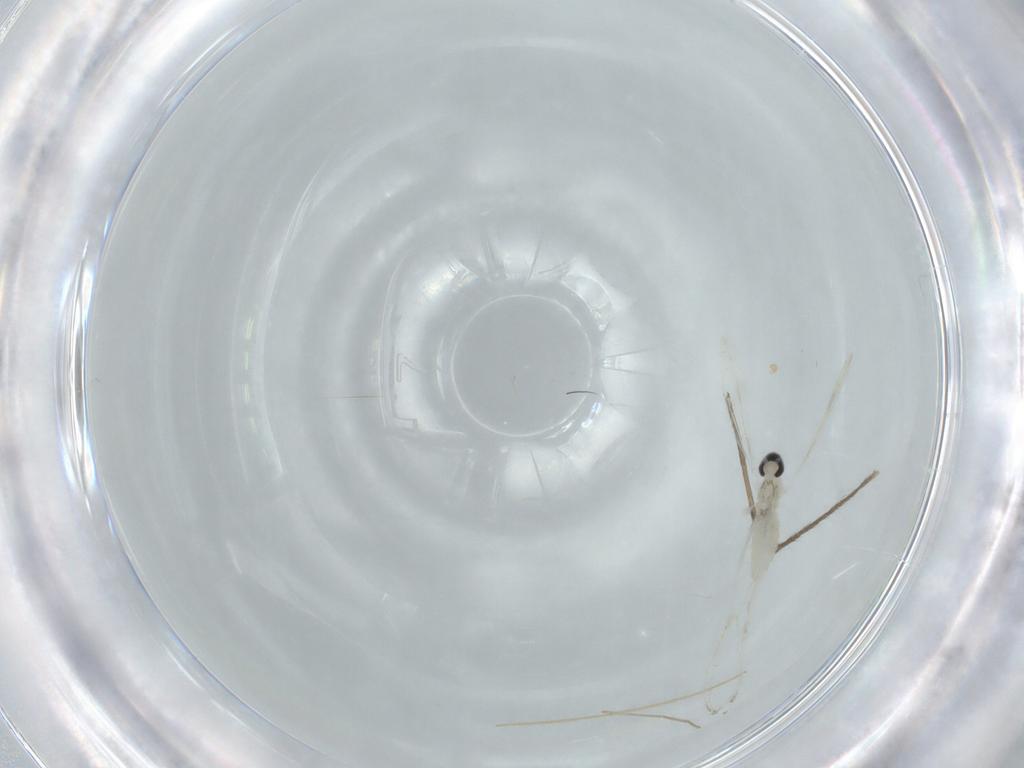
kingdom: Animalia
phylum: Arthropoda
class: Insecta
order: Diptera
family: Cecidomyiidae
